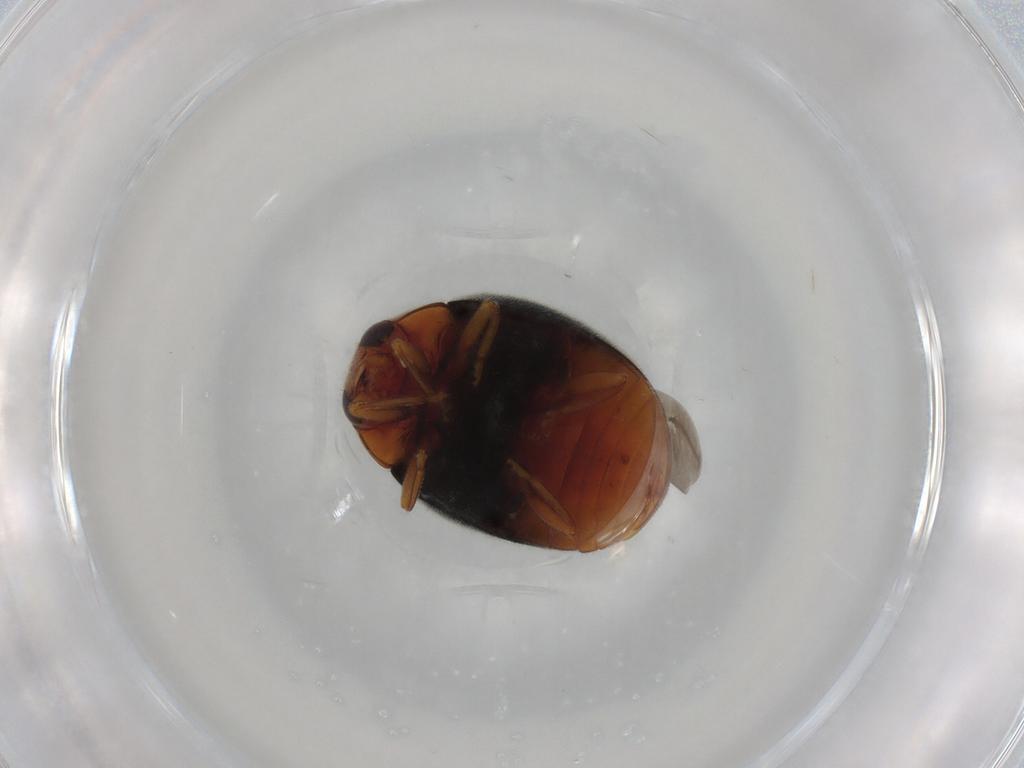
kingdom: Animalia
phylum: Arthropoda
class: Insecta
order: Coleoptera
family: Coccinellidae
